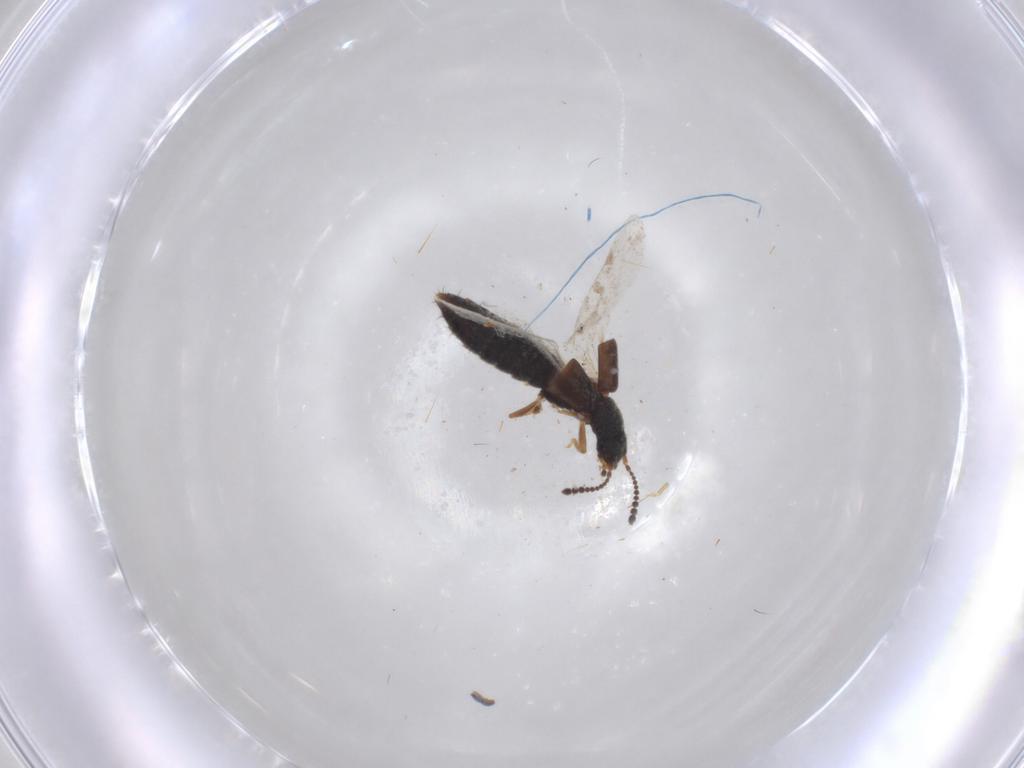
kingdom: Animalia
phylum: Arthropoda
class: Insecta
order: Coleoptera
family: Staphylinidae
